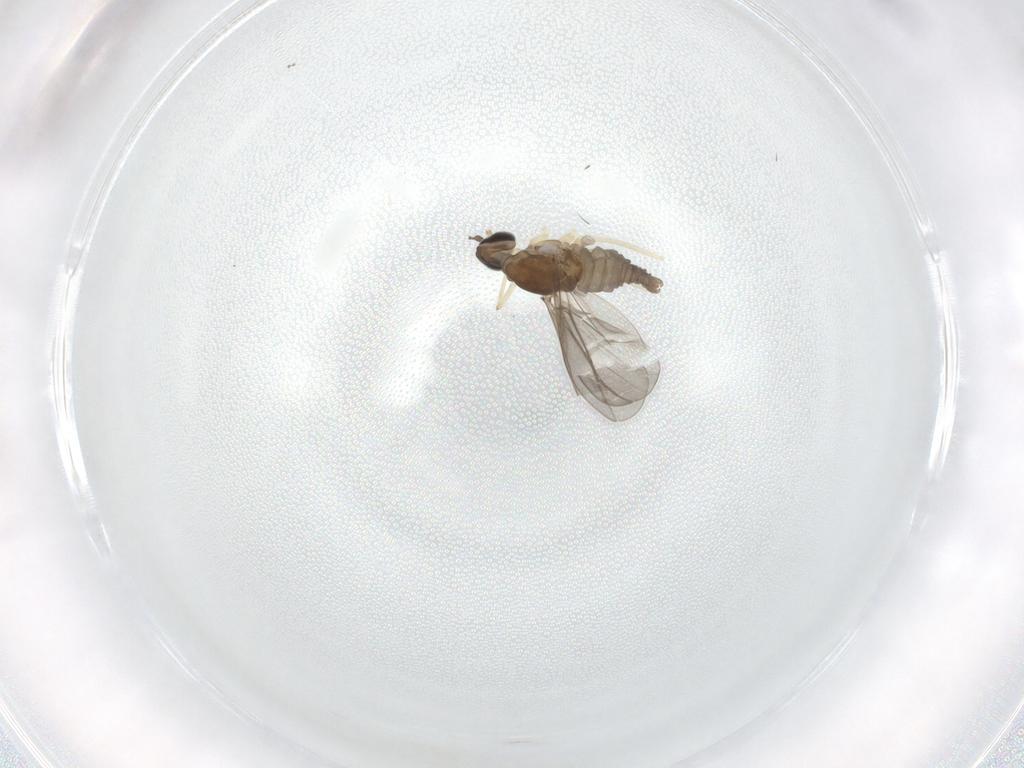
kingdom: Animalia
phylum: Arthropoda
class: Insecta
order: Diptera
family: Cecidomyiidae
